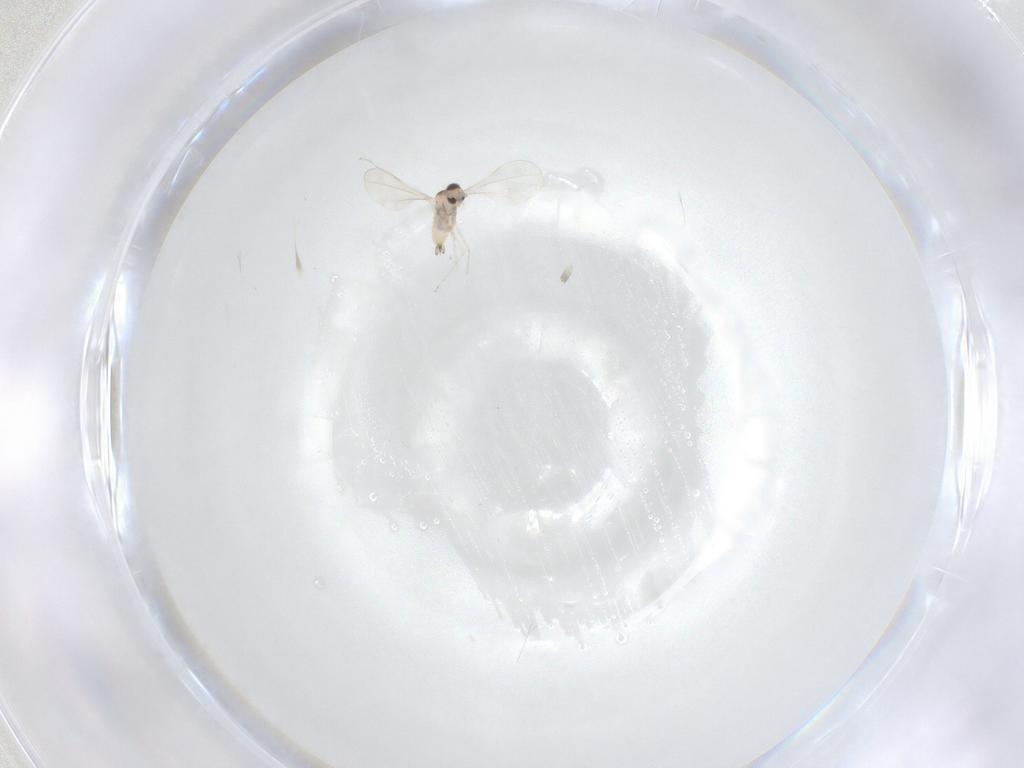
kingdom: Animalia
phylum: Arthropoda
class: Insecta
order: Diptera
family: Cecidomyiidae
